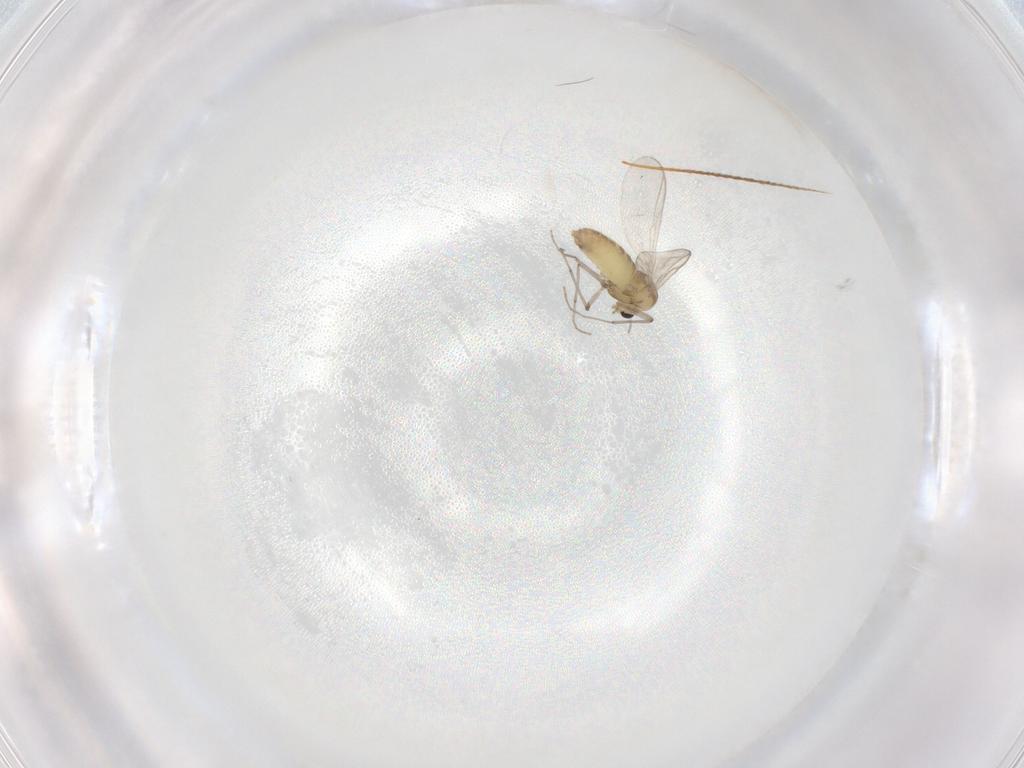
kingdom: Animalia
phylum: Arthropoda
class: Insecta
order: Diptera
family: Chironomidae
